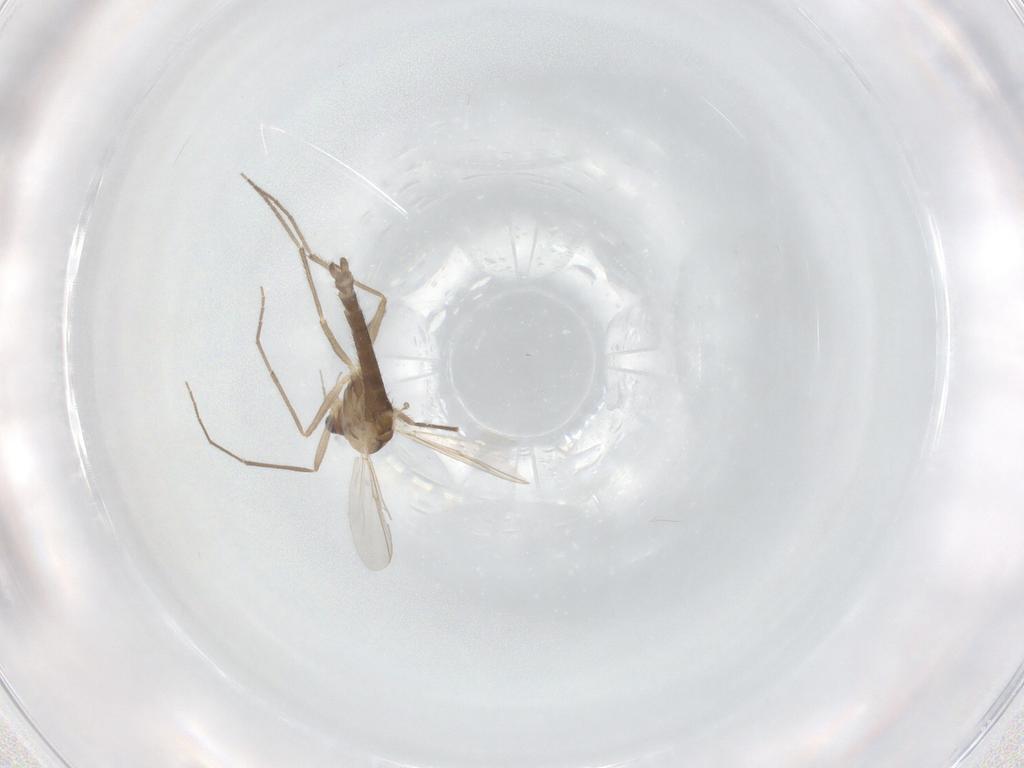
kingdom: Animalia
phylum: Arthropoda
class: Insecta
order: Diptera
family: Chironomidae
